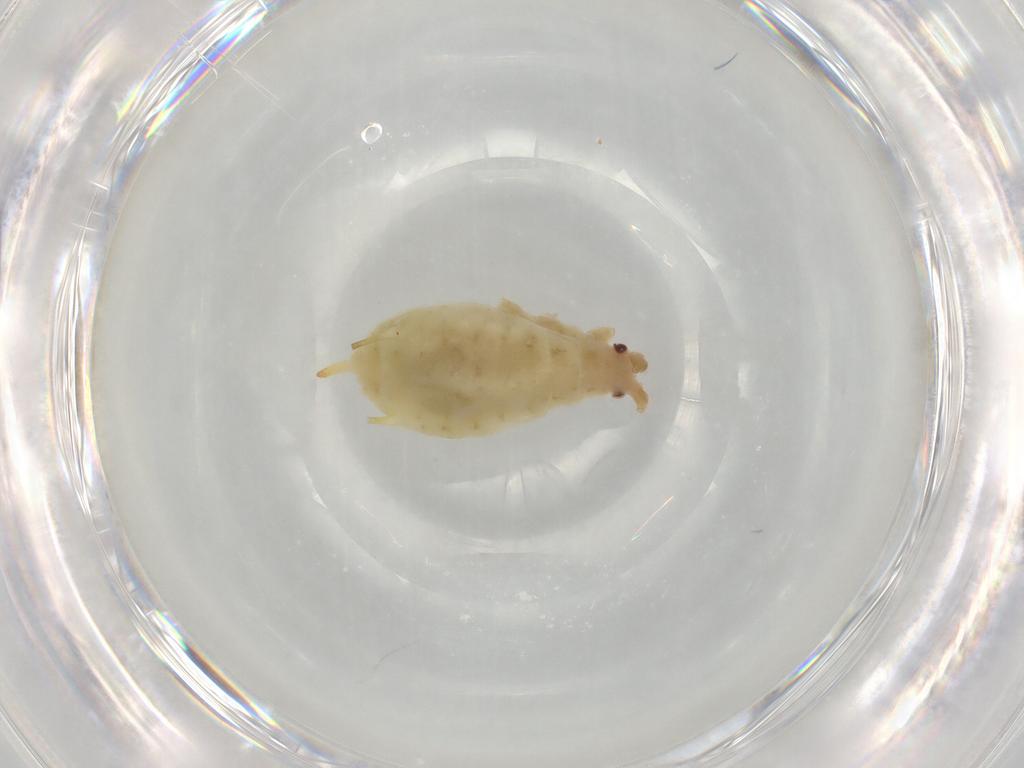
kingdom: Animalia
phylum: Arthropoda
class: Insecta
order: Hemiptera
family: Aphididae
